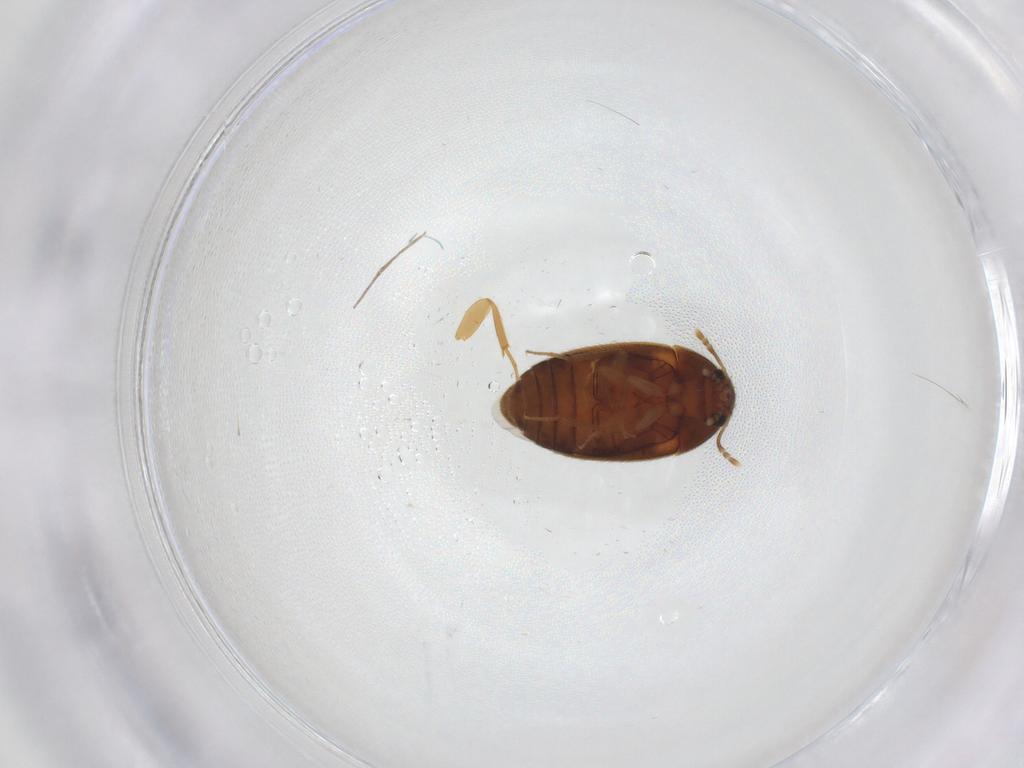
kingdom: Animalia
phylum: Arthropoda
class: Insecta
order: Coleoptera
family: Mycetophagidae
